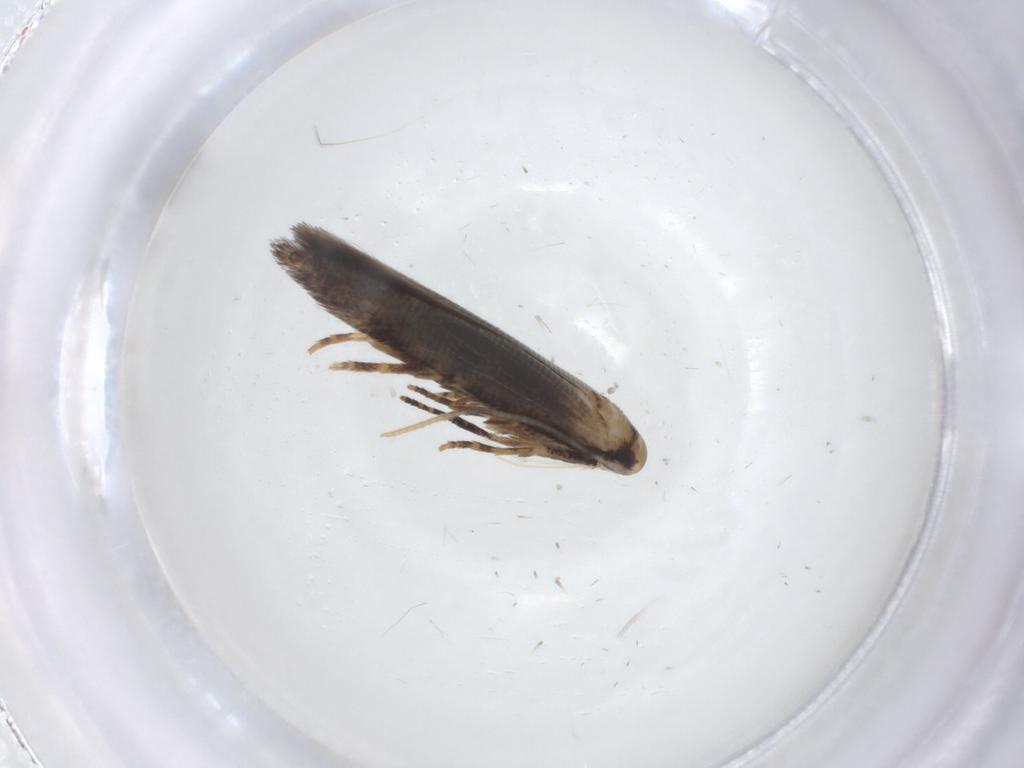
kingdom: Animalia
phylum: Arthropoda
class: Insecta
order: Lepidoptera
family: Cosmopterigidae
